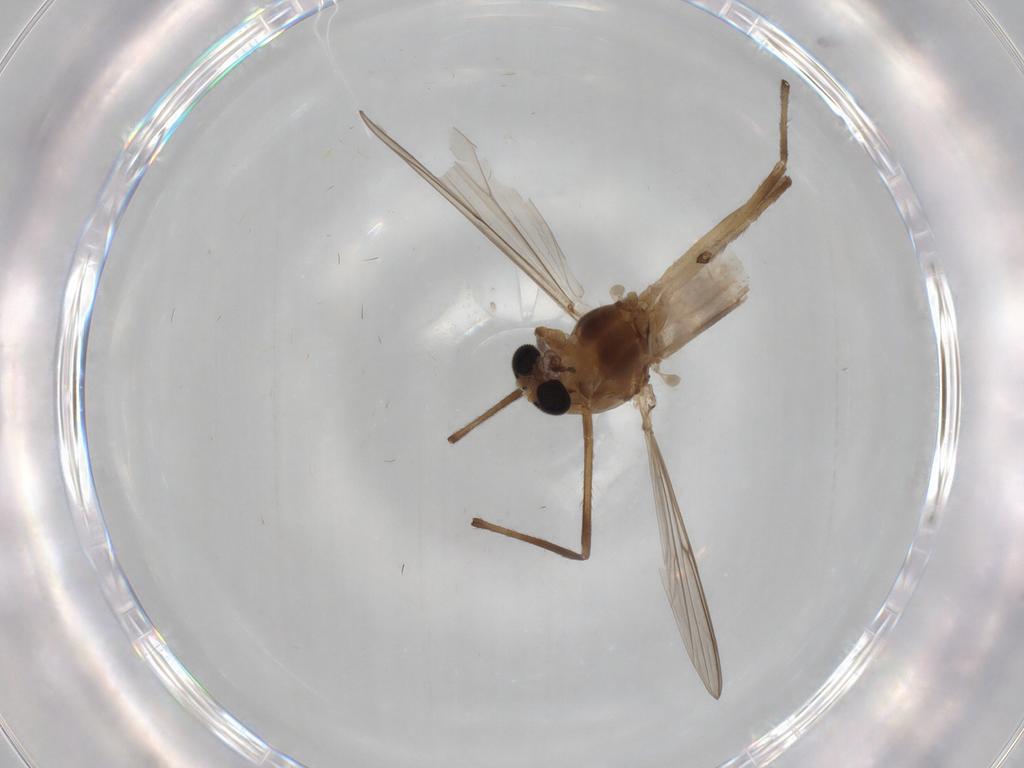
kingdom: Animalia
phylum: Arthropoda
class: Insecta
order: Diptera
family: Chironomidae
